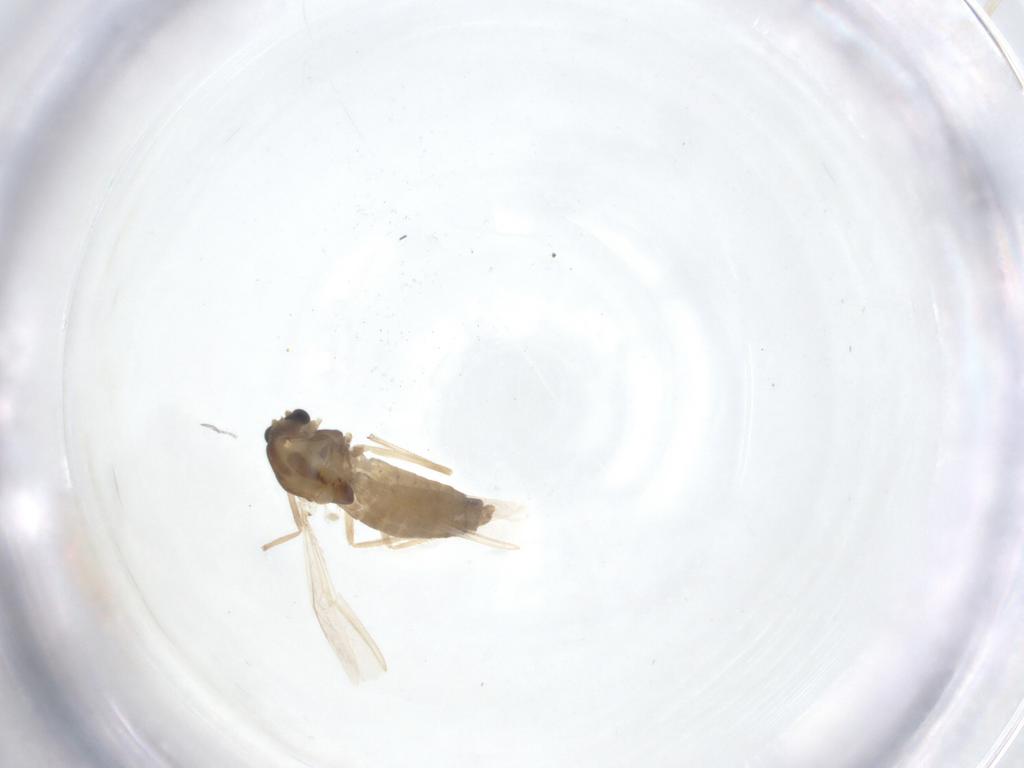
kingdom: Animalia
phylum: Arthropoda
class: Insecta
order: Diptera
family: Chironomidae
